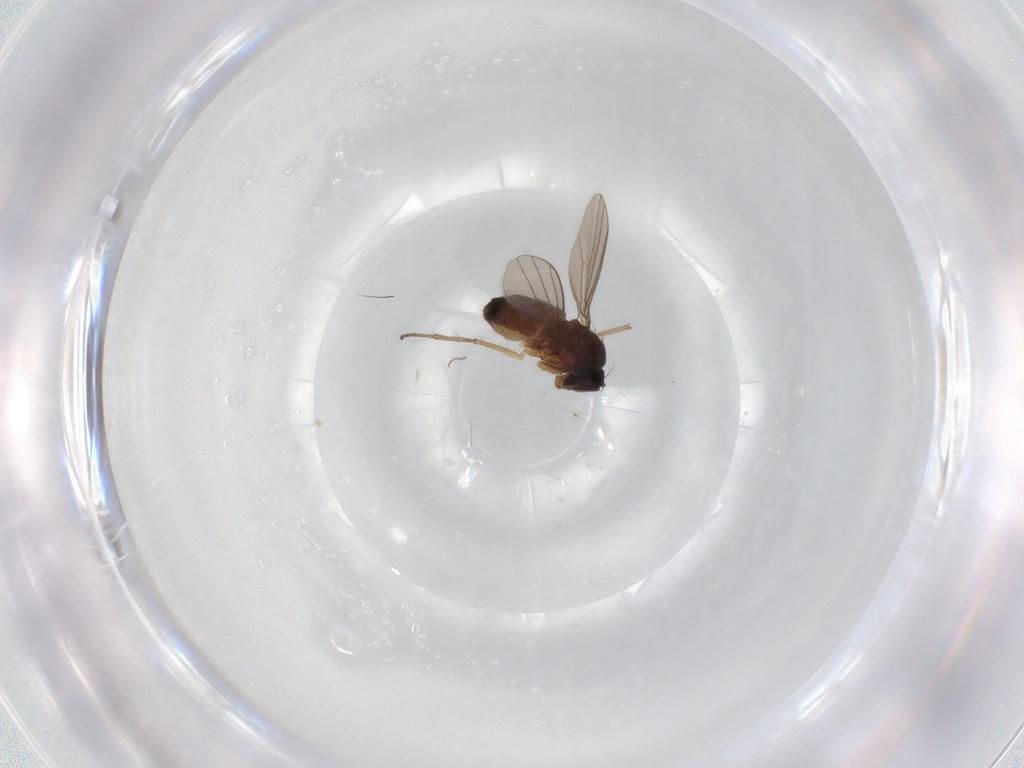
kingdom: Animalia
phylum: Arthropoda
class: Insecta
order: Diptera
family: Dolichopodidae
